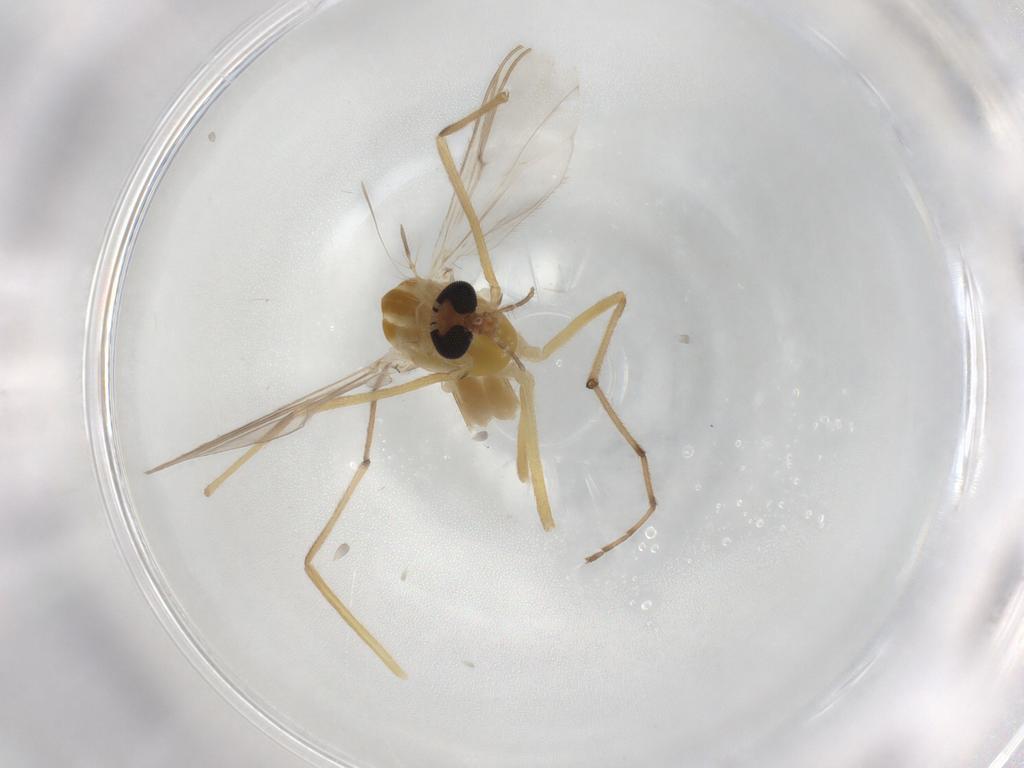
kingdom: Animalia
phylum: Arthropoda
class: Insecta
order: Diptera
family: Chironomidae
